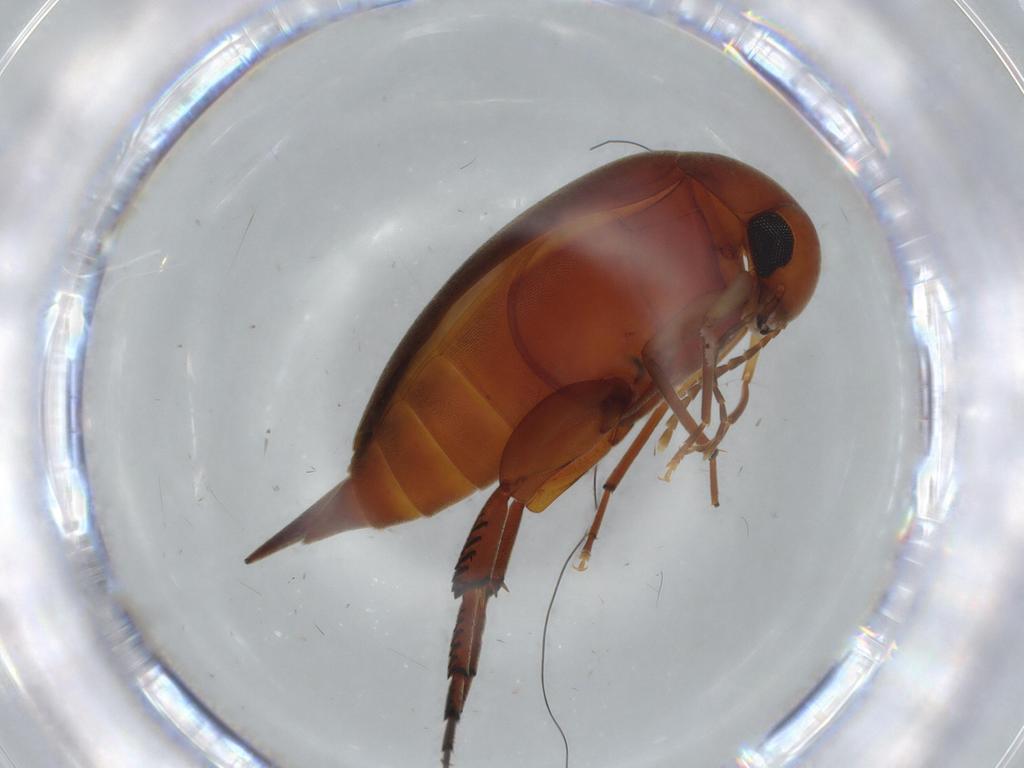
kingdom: Animalia
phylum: Arthropoda
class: Insecta
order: Coleoptera
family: Mordellidae
